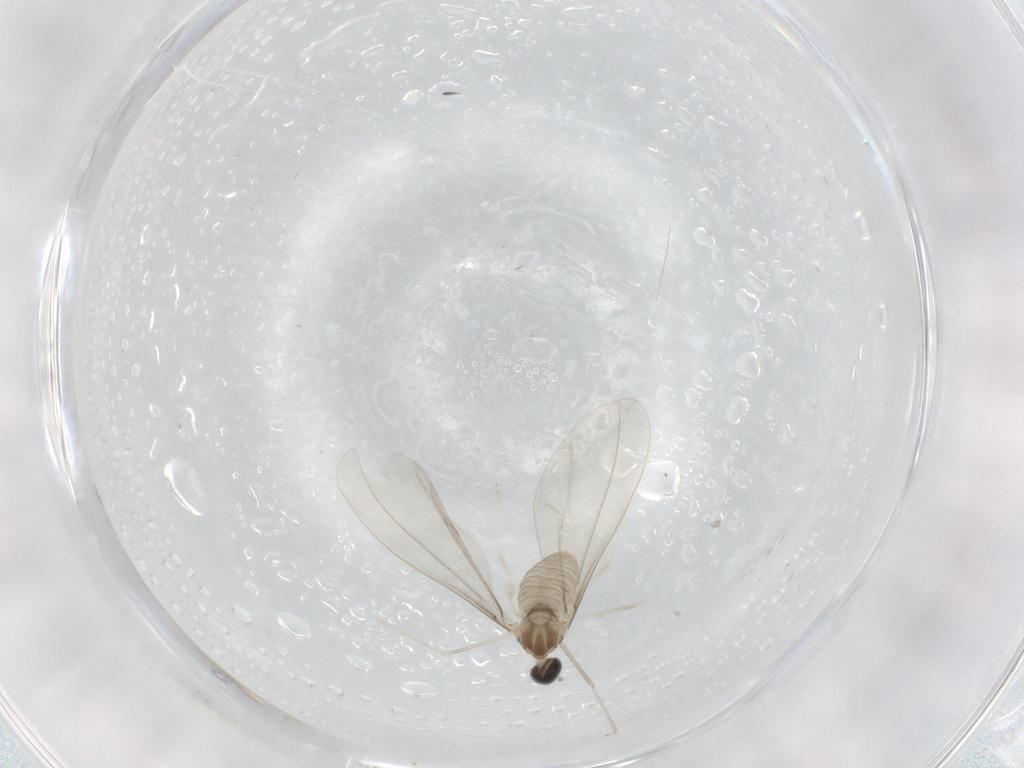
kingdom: Animalia
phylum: Arthropoda
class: Insecta
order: Diptera
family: Cecidomyiidae
